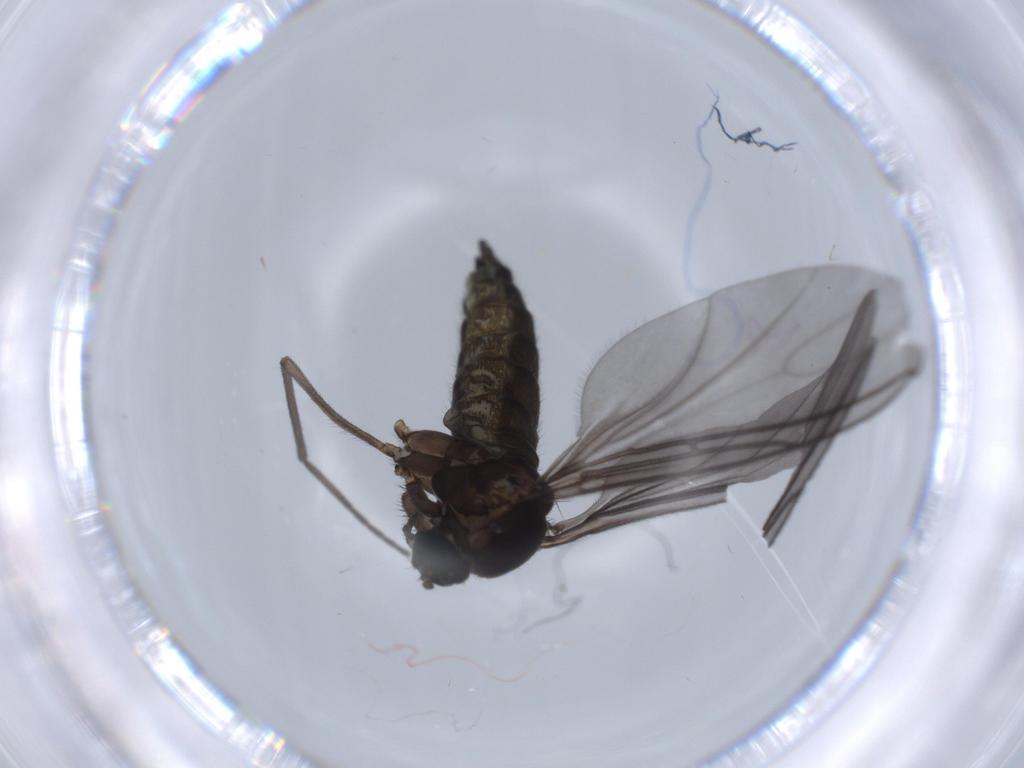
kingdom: Animalia
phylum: Arthropoda
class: Insecta
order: Diptera
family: Sciaridae
